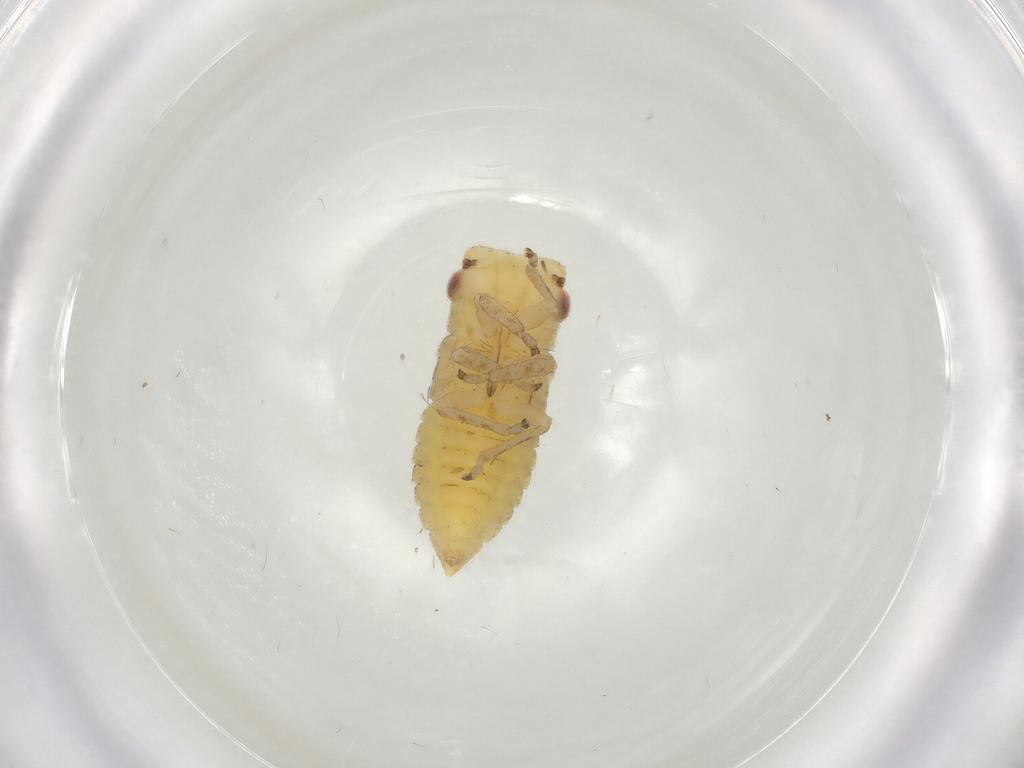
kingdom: Animalia
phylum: Arthropoda
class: Insecta
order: Hemiptera
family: Cicadellidae
